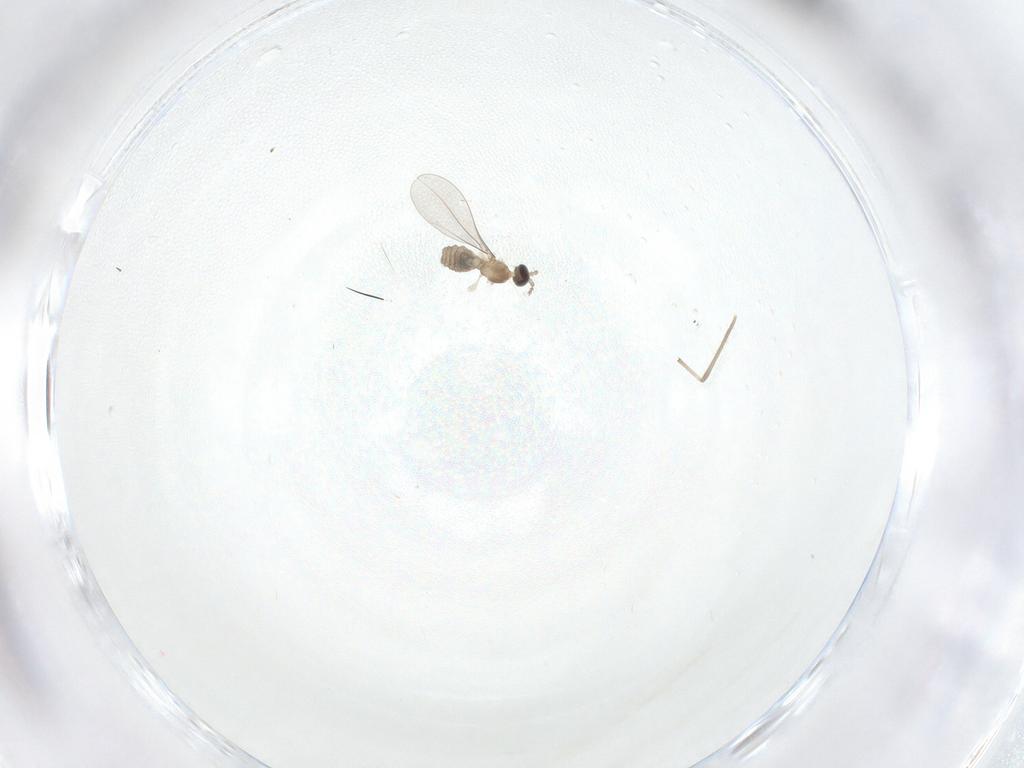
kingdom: Animalia
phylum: Arthropoda
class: Insecta
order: Diptera
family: Cecidomyiidae
